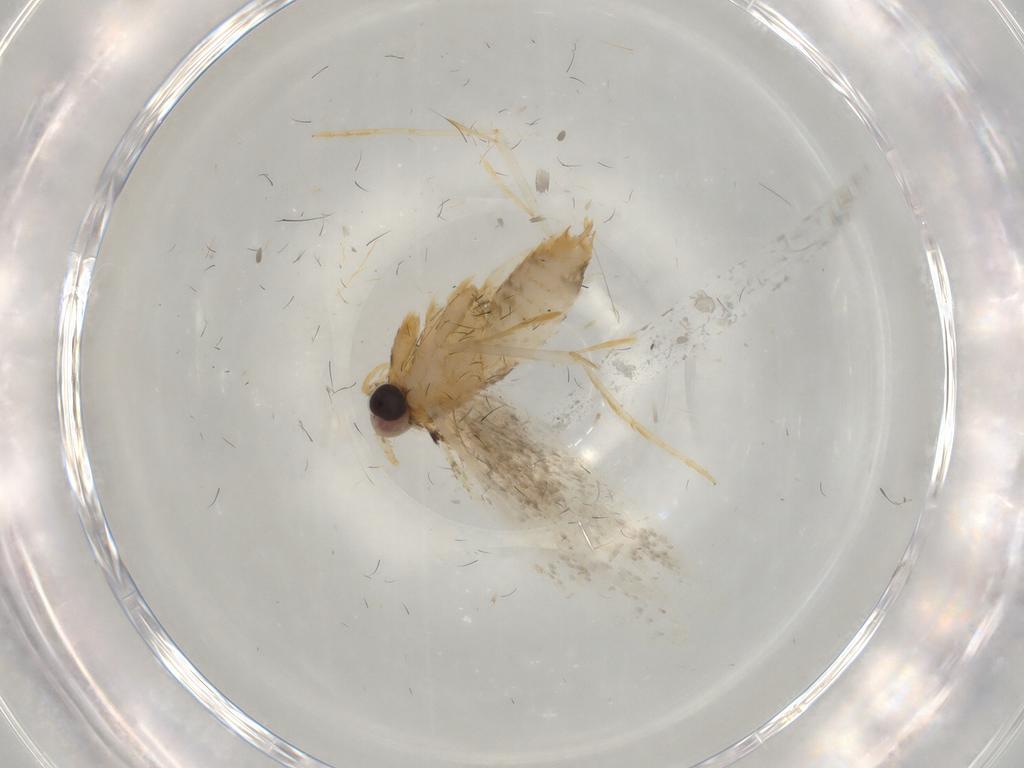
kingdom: Animalia
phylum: Arthropoda
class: Insecta
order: Lepidoptera
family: Nepticulidae
